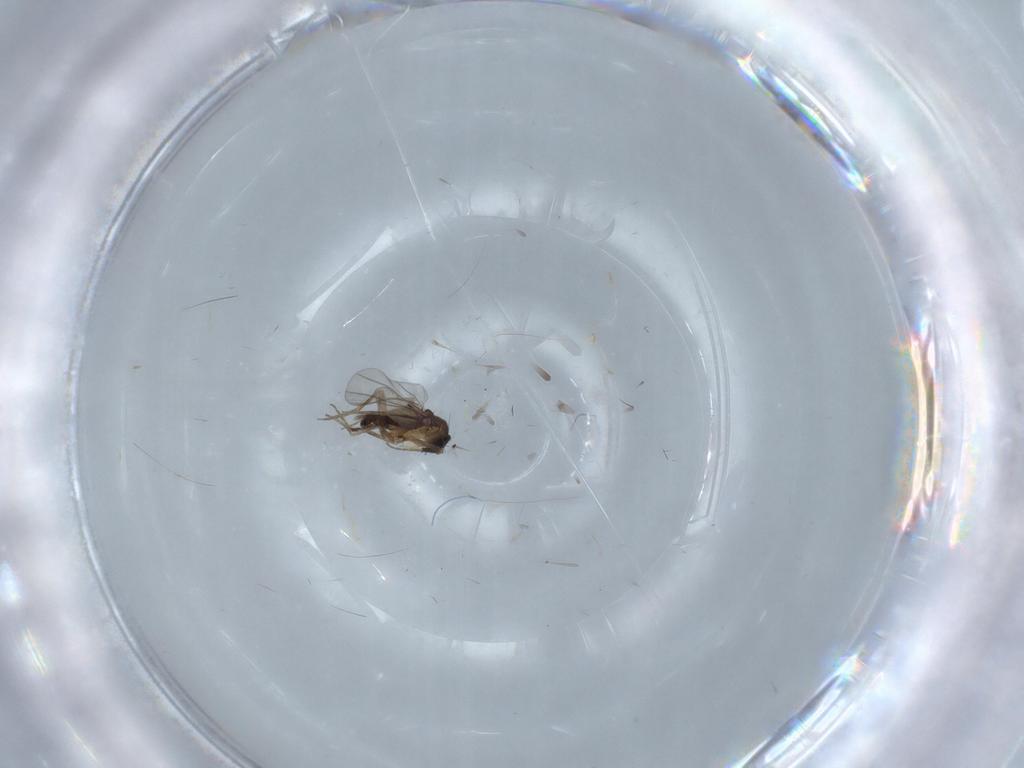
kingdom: Animalia
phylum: Arthropoda
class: Insecta
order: Diptera
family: Phoridae
